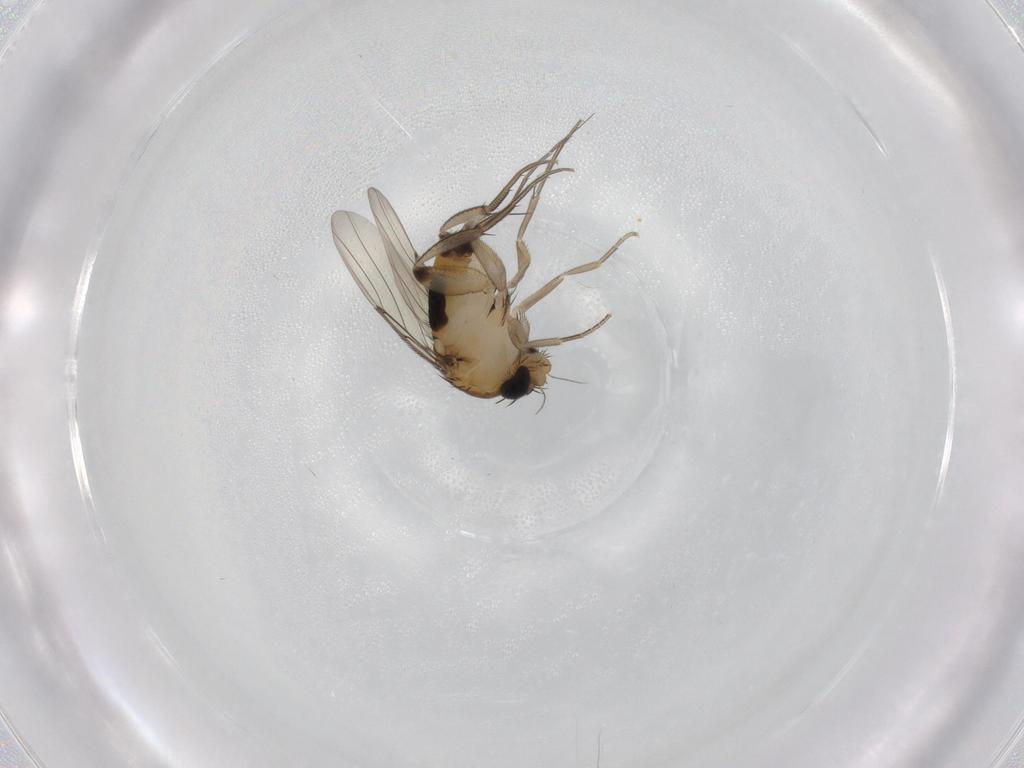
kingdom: Animalia
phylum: Arthropoda
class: Insecta
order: Diptera
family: Phoridae
